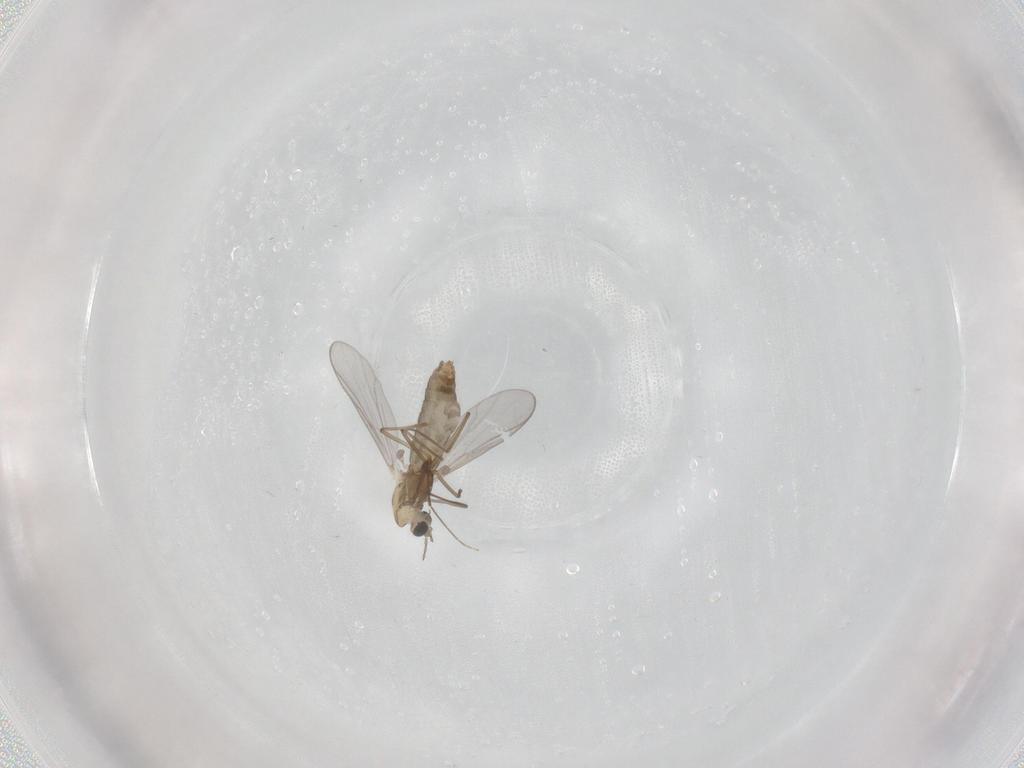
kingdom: Animalia
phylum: Arthropoda
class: Insecta
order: Diptera
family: Chironomidae
